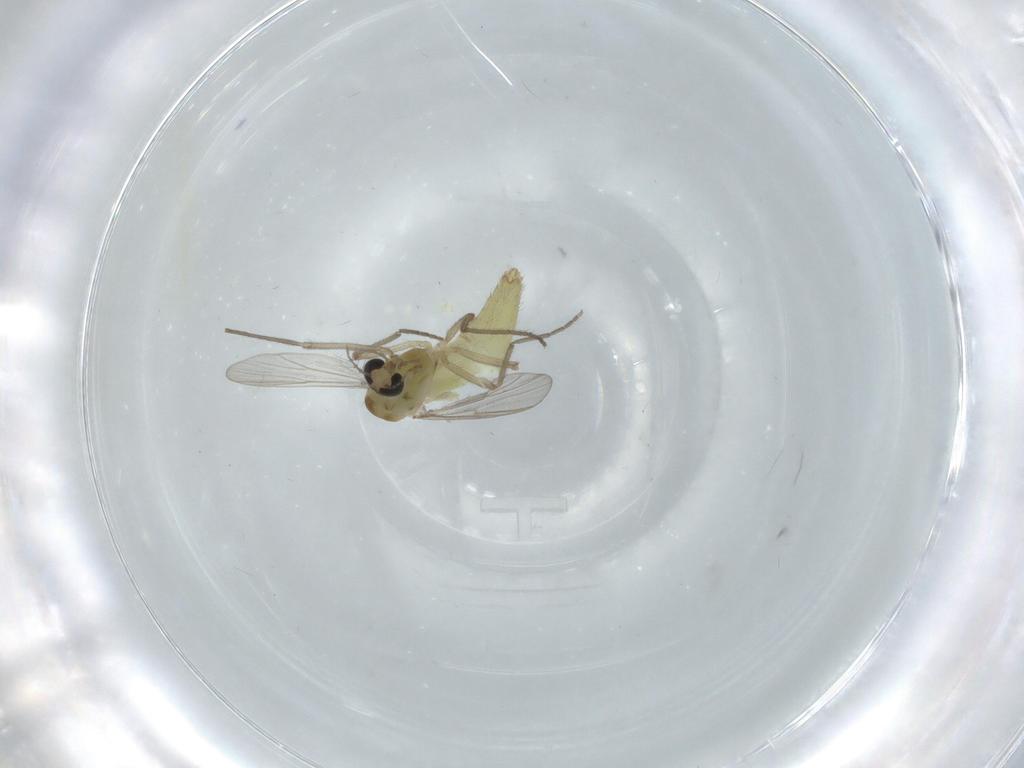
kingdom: Animalia
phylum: Arthropoda
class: Insecta
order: Diptera
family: Chironomidae
